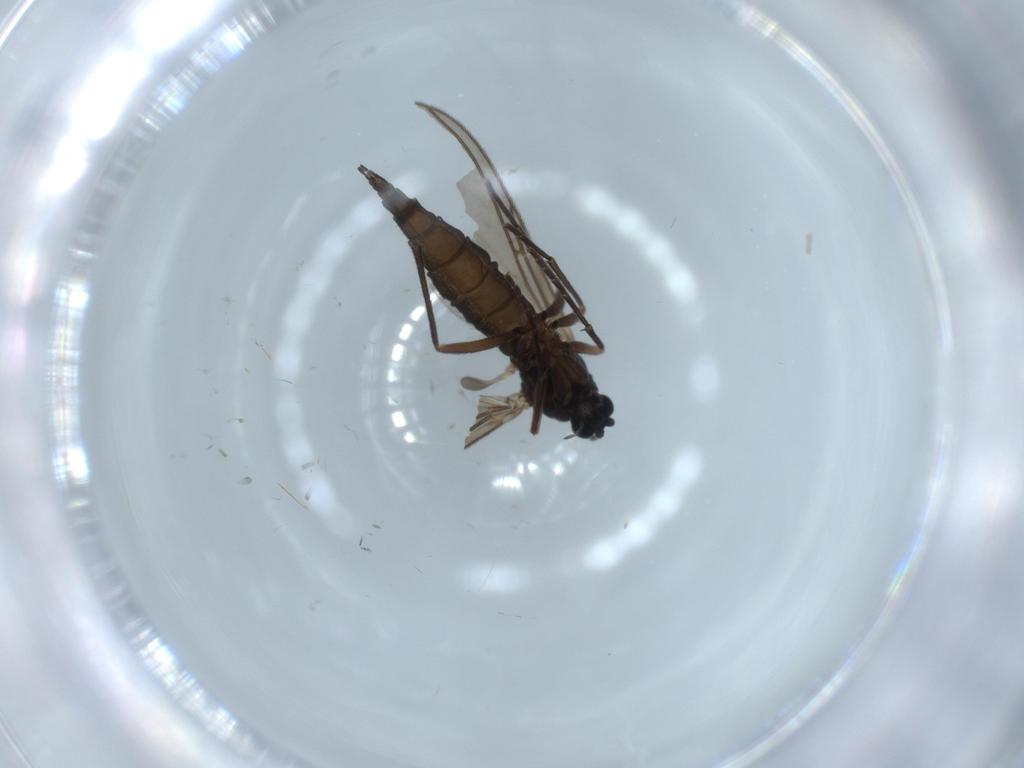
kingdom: Animalia
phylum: Arthropoda
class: Insecta
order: Diptera
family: Sciaridae
